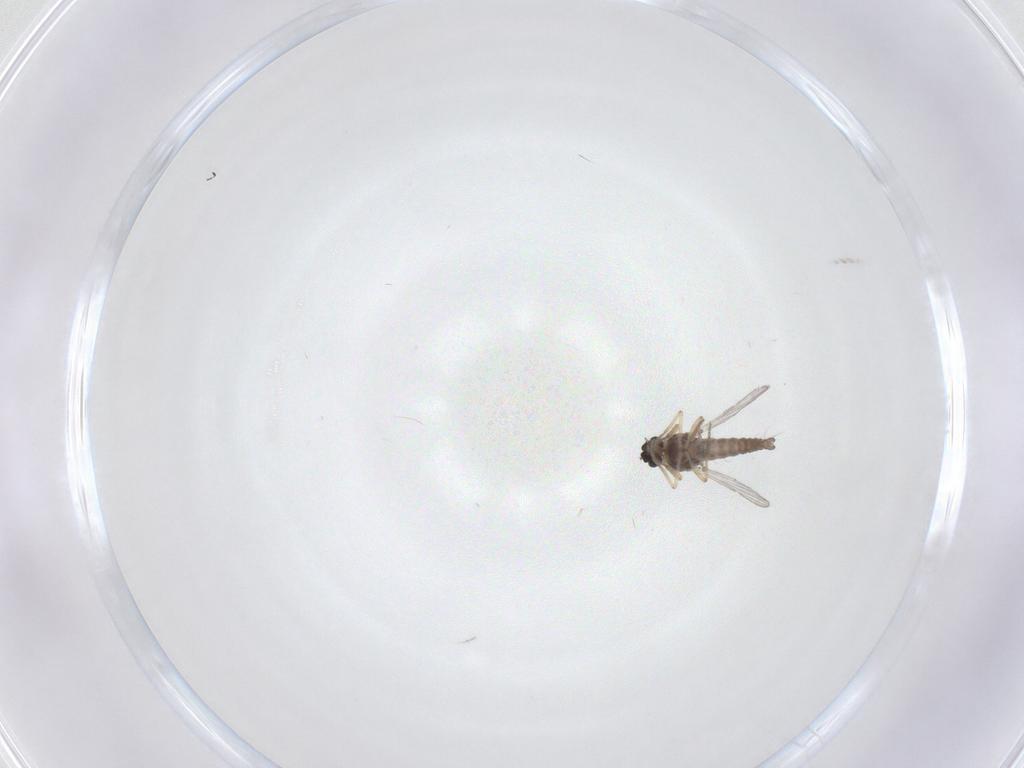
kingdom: Animalia
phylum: Arthropoda
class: Insecta
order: Diptera
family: Ceratopogonidae
